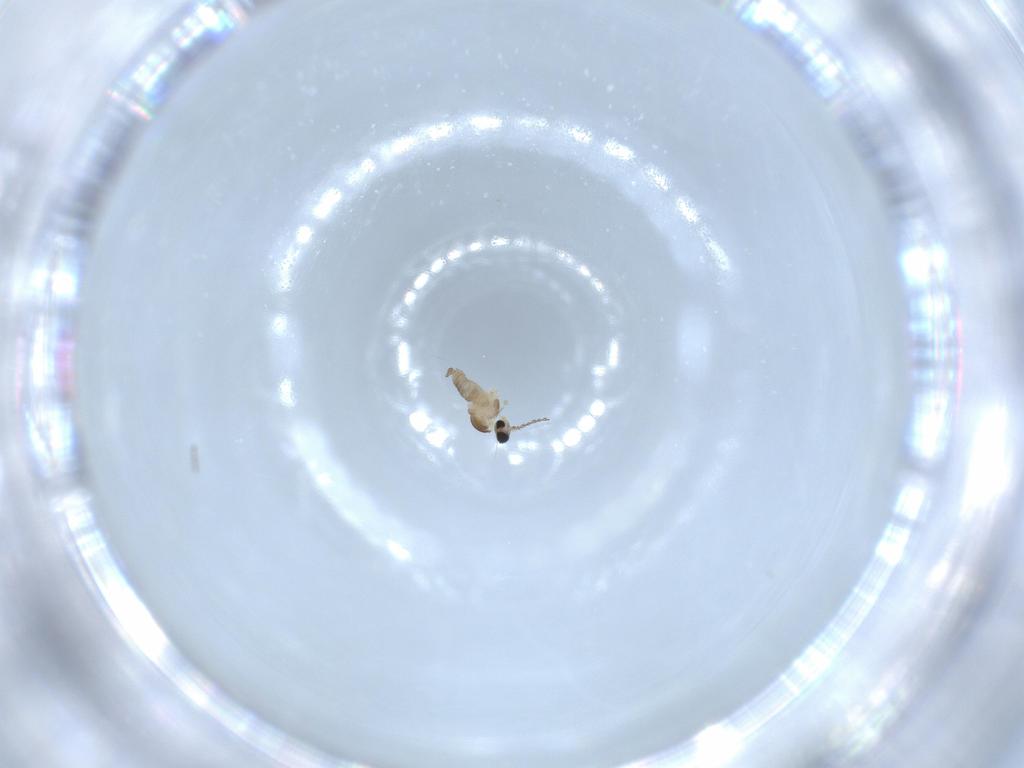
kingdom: Animalia
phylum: Arthropoda
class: Insecta
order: Diptera
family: Cecidomyiidae
